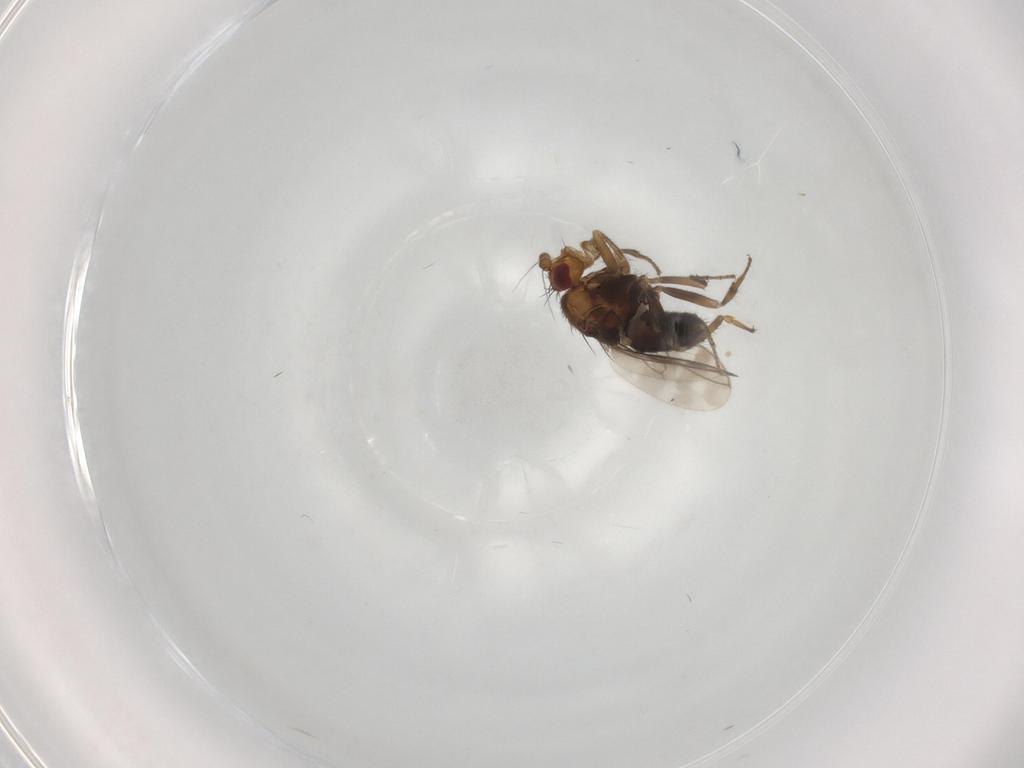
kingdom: Animalia
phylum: Arthropoda
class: Insecta
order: Diptera
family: Sphaeroceridae
